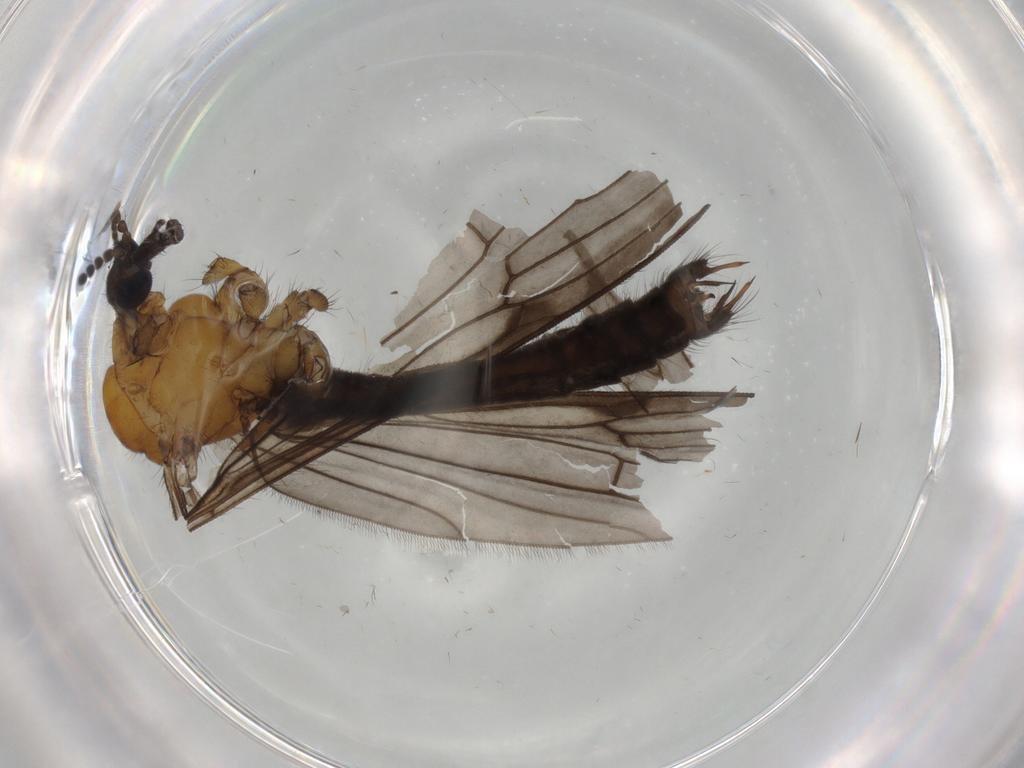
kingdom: Animalia
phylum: Arthropoda
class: Insecta
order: Diptera
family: Limoniidae
